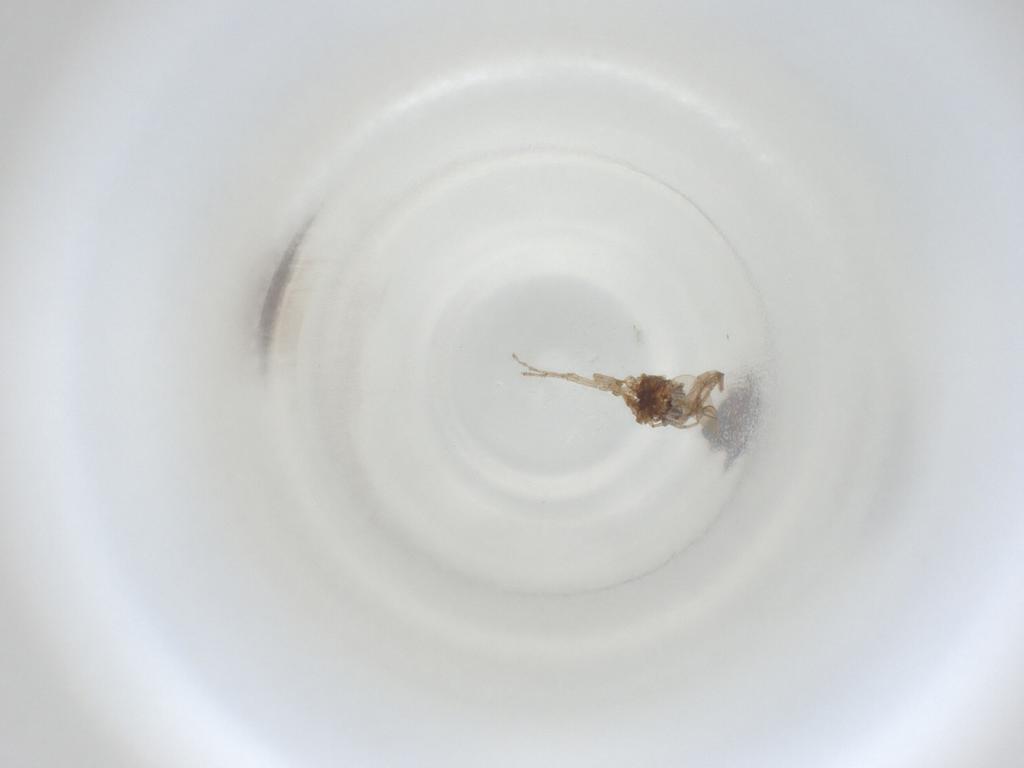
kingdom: Animalia
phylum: Arthropoda
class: Insecta
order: Diptera
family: Cecidomyiidae
